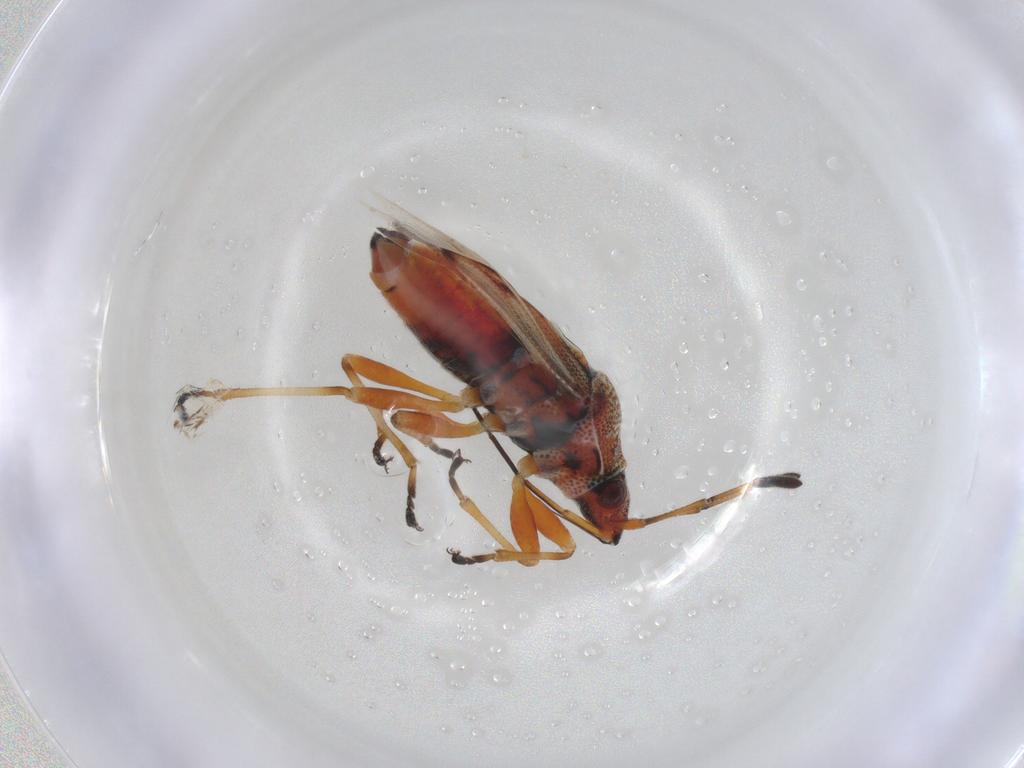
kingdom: Animalia
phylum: Arthropoda
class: Insecta
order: Hemiptera
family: Lygaeidae
